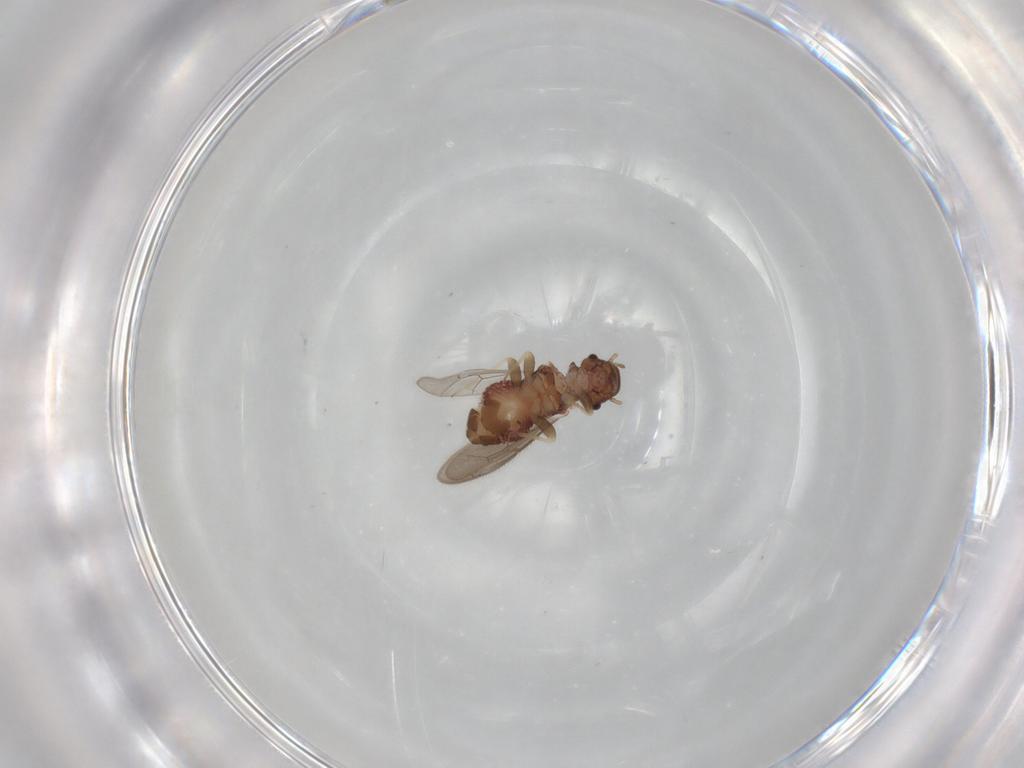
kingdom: Animalia
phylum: Arthropoda
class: Insecta
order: Psocodea
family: Archipsocidae
